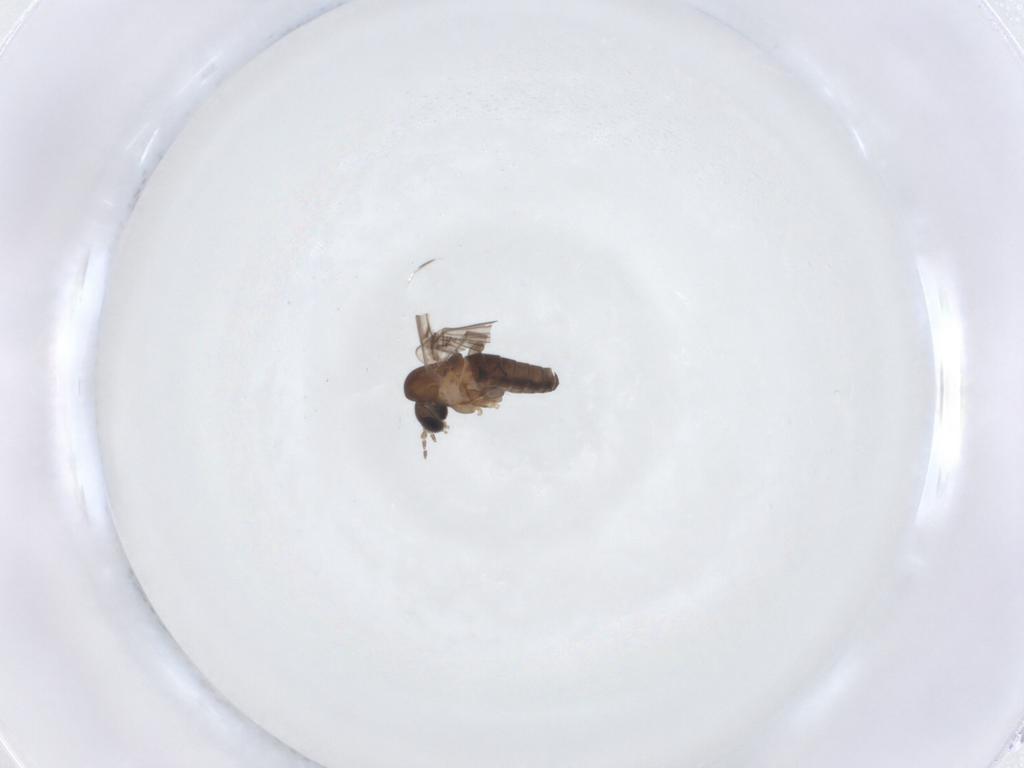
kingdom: Animalia
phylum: Arthropoda
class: Insecta
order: Diptera
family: Psychodidae
